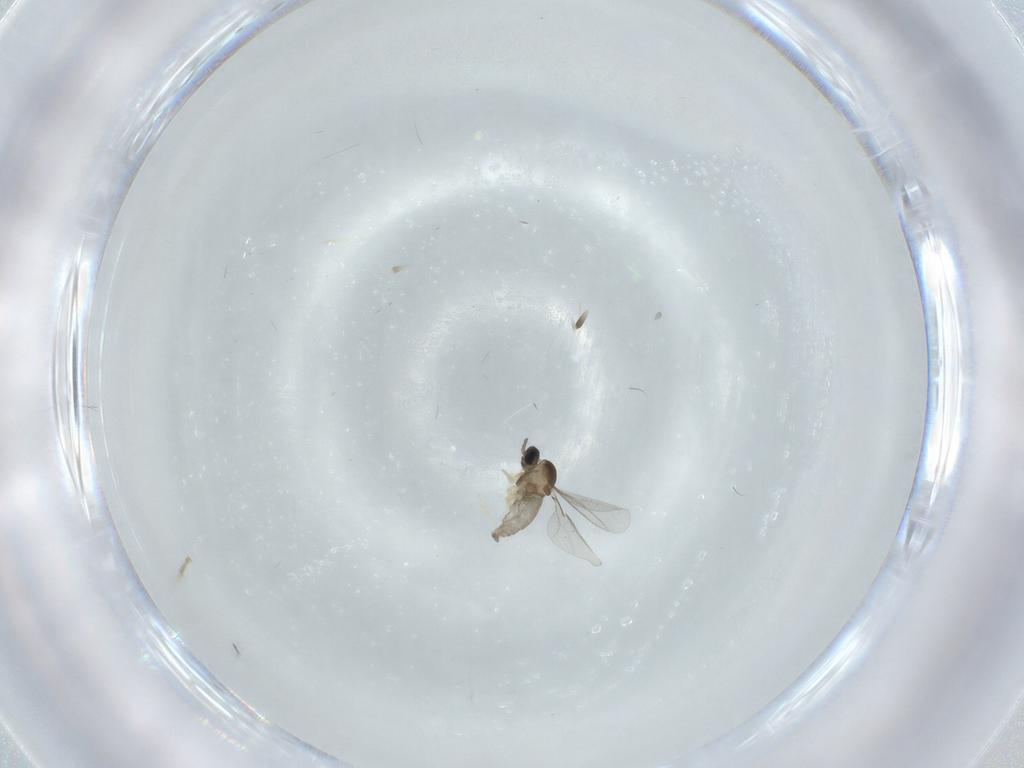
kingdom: Animalia
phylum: Arthropoda
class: Insecta
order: Diptera
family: Cecidomyiidae
